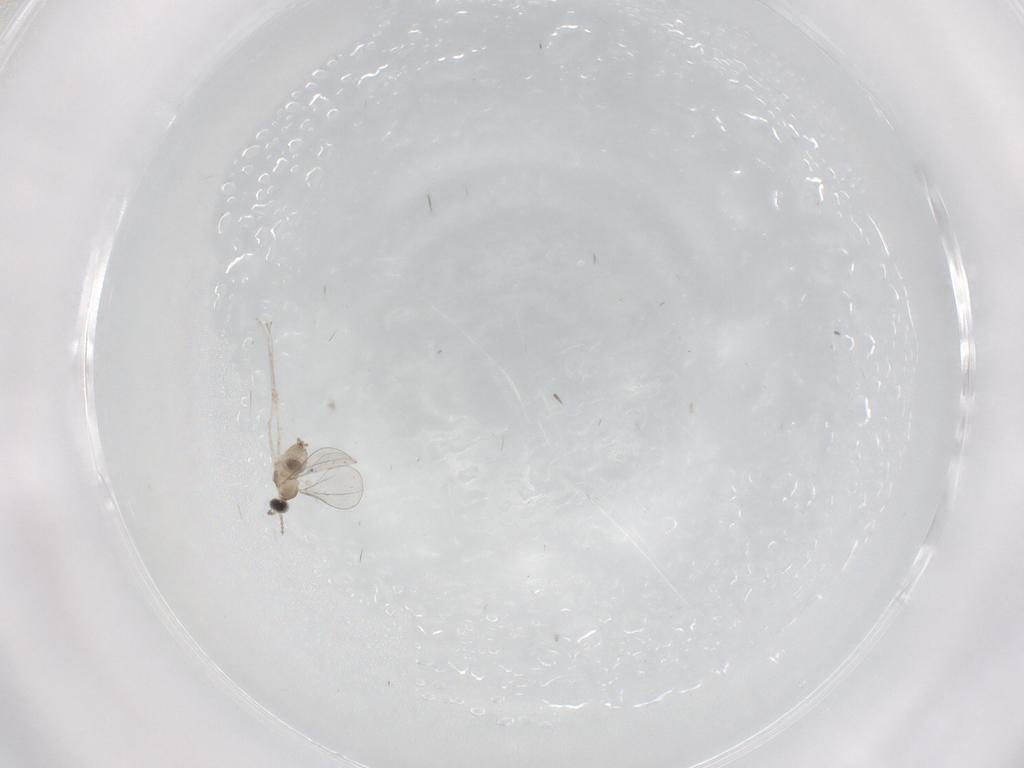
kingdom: Animalia
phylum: Arthropoda
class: Insecta
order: Diptera
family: Cecidomyiidae
